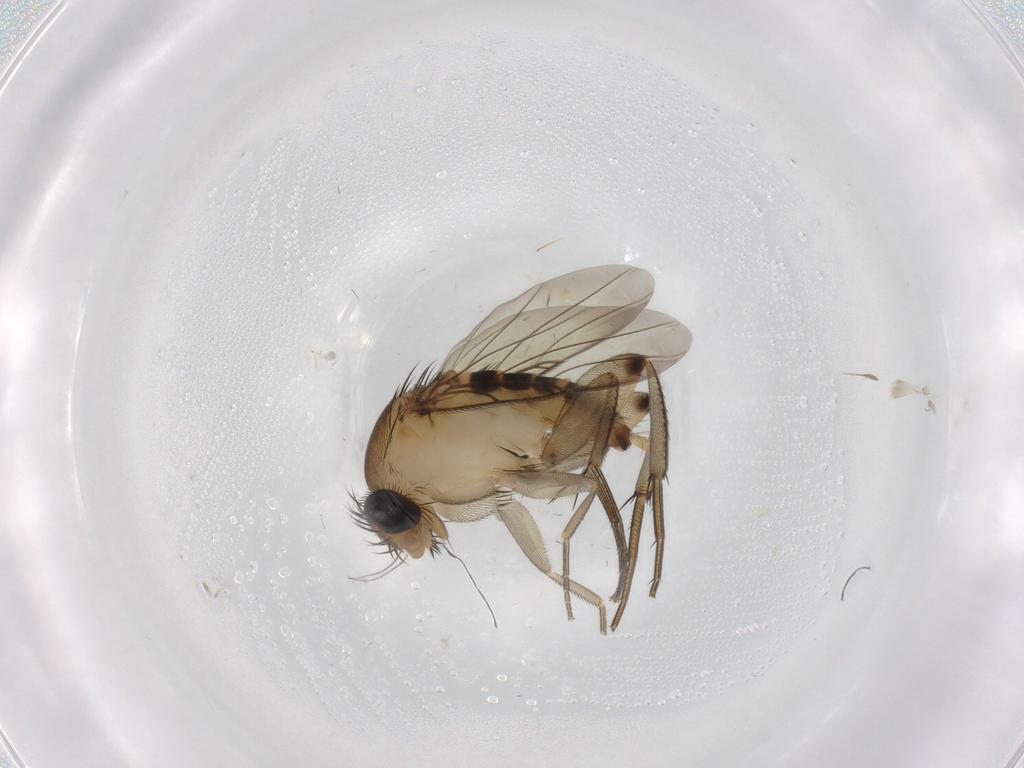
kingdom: Animalia
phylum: Arthropoda
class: Insecta
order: Diptera
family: Phoridae
